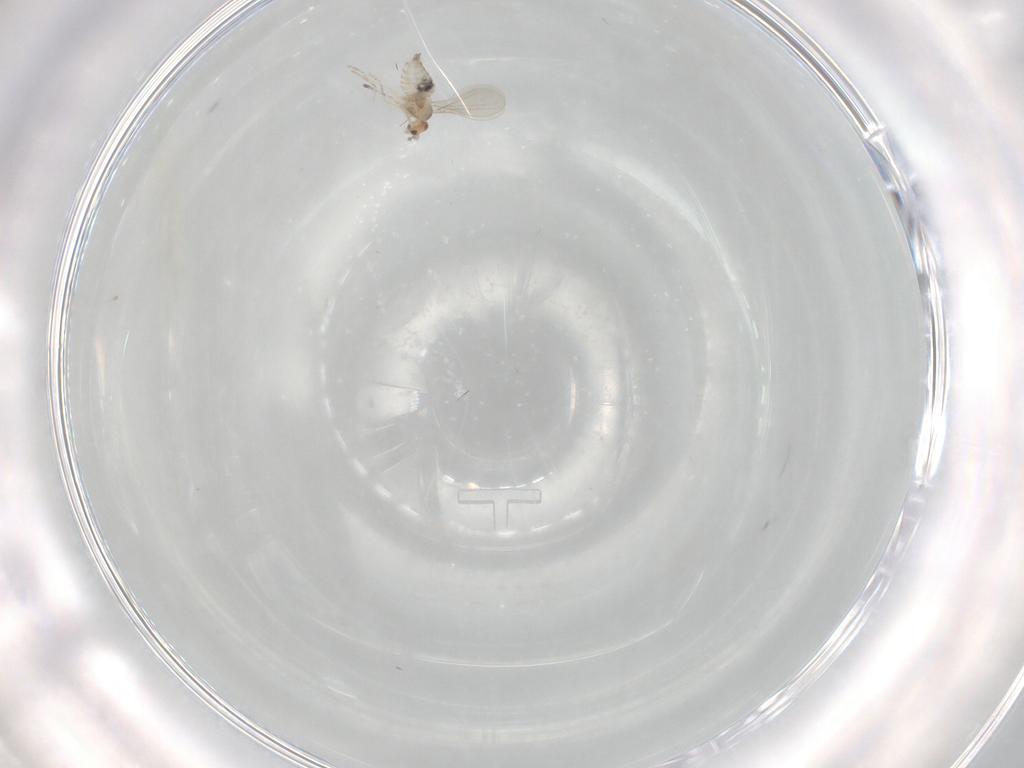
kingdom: Animalia
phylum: Arthropoda
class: Insecta
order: Diptera
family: Cecidomyiidae
